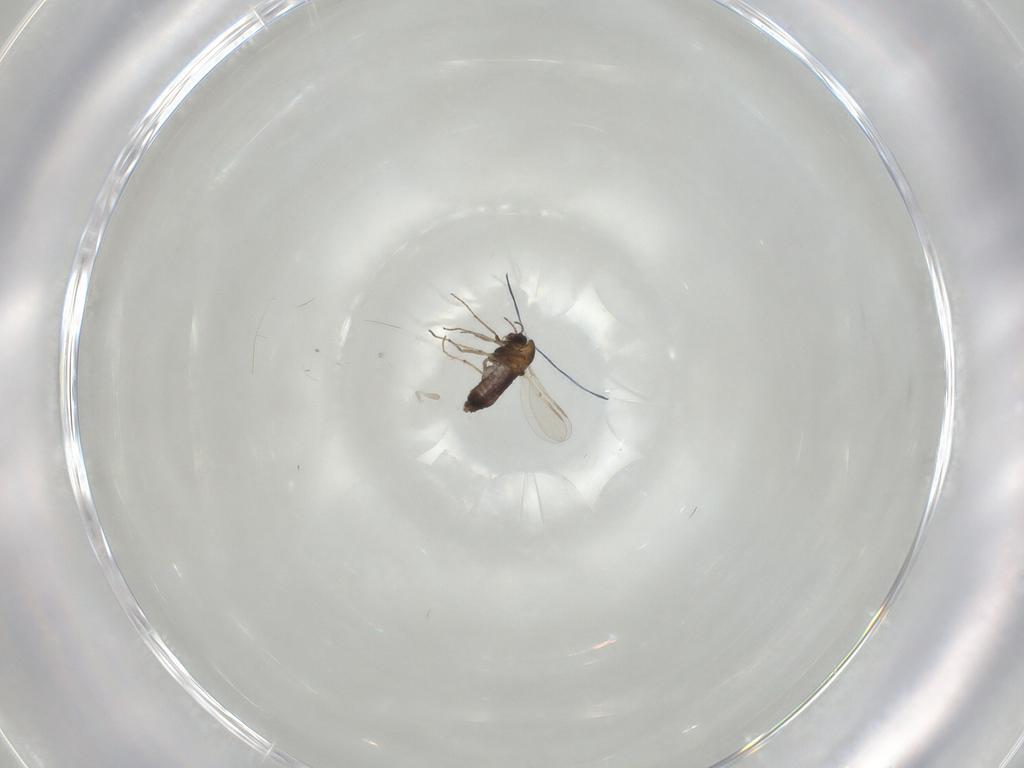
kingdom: Animalia
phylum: Arthropoda
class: Insecta
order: Diptera
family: Chironomidae
